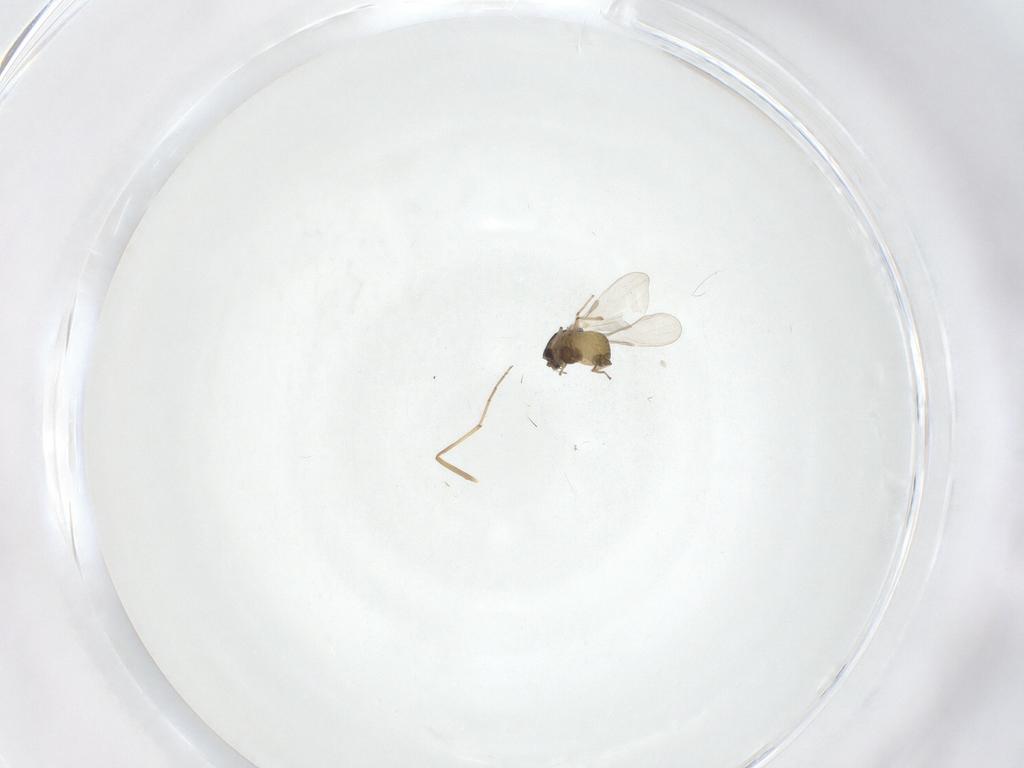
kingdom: Animalia
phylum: Arthropoda
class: Insecta
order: Diptera
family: Chironomidae
